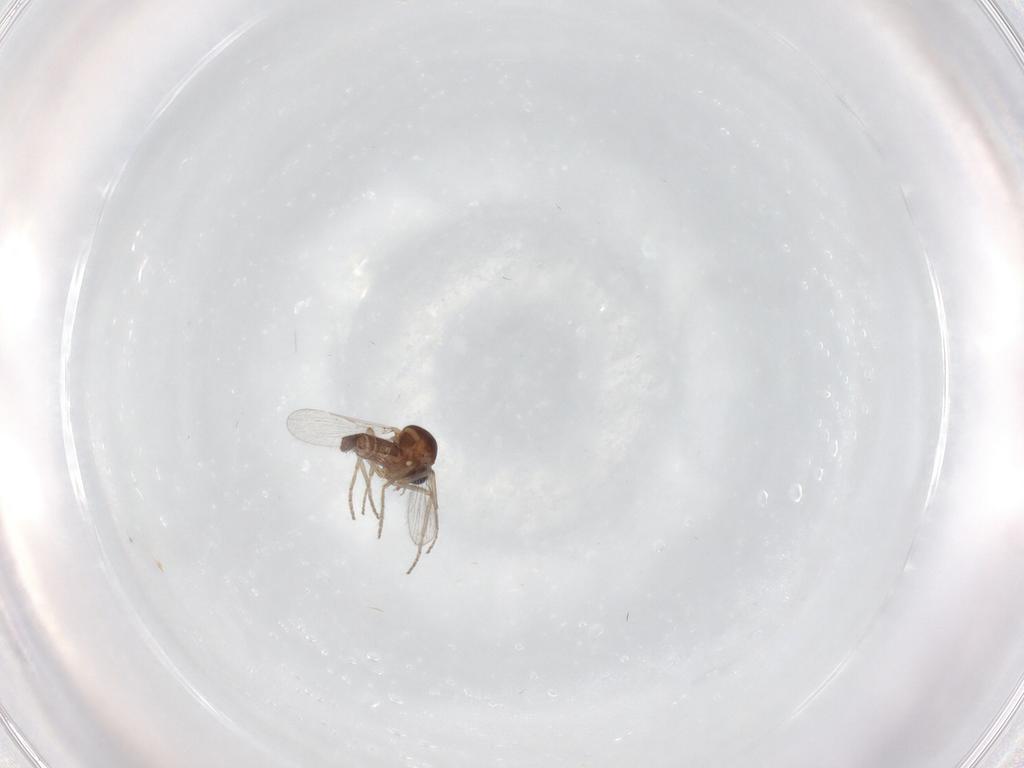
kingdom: Animalia
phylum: Arthropoda
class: Insecta
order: Diptera
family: Ceratopogonidae
